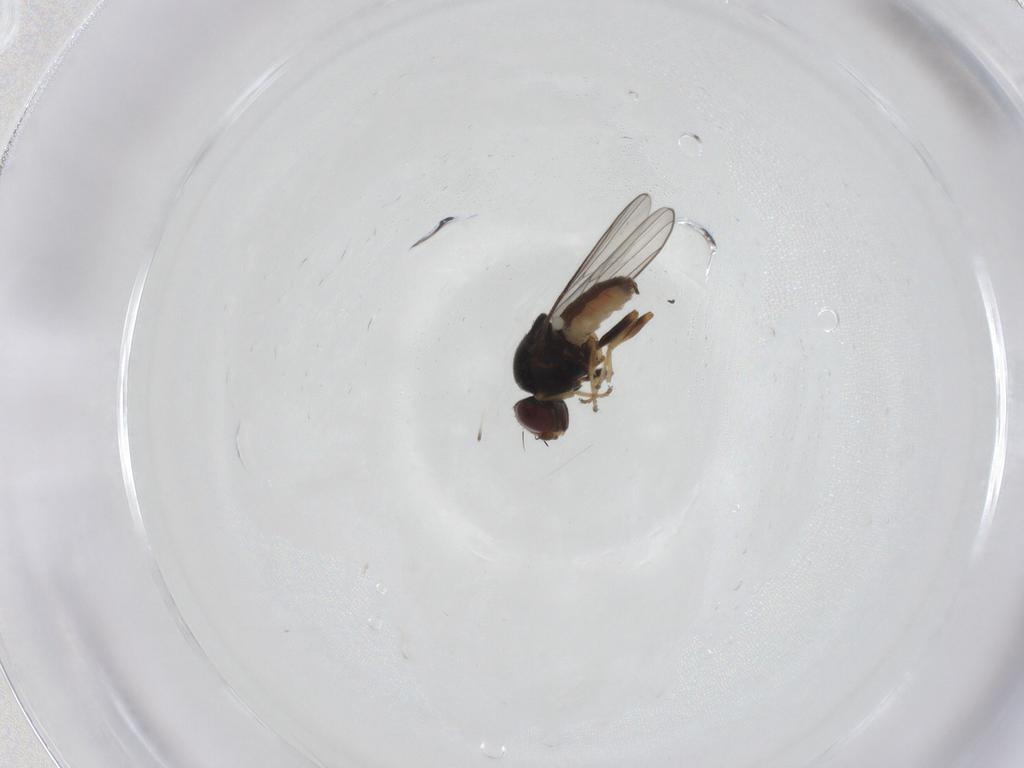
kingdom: Animalia
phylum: Arthropoda
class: Insecta
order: Diptera
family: Chloropidae
